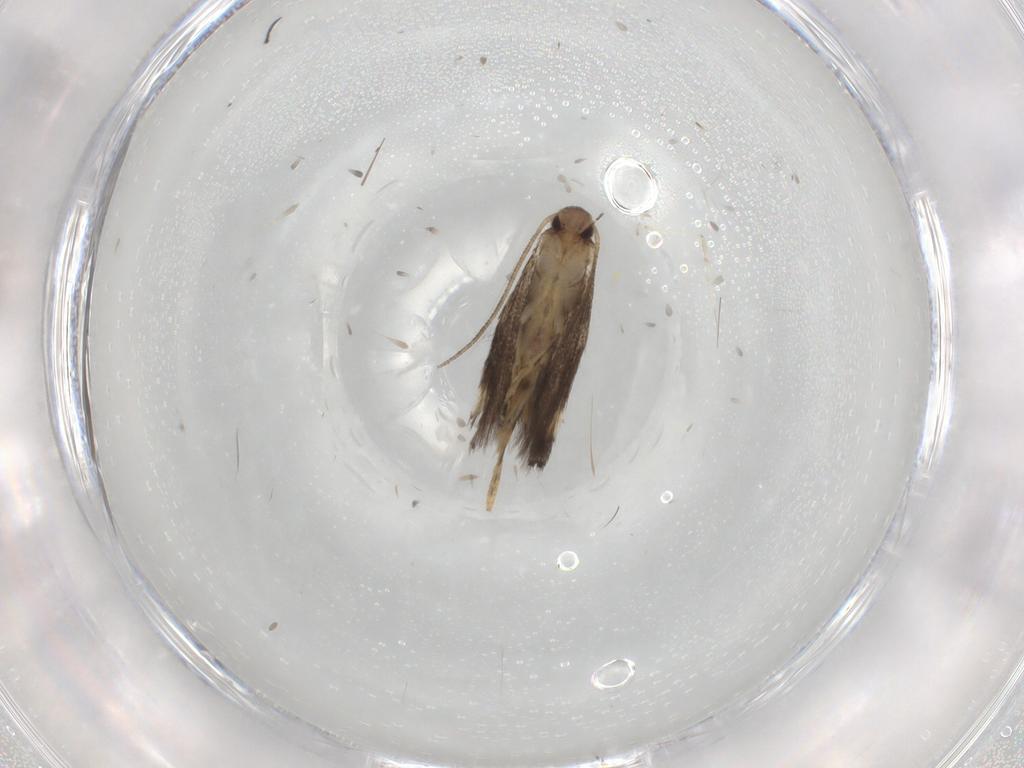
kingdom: Animalia
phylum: Arthropoda
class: Insecta
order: Lepidoptera
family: Elachistidae
